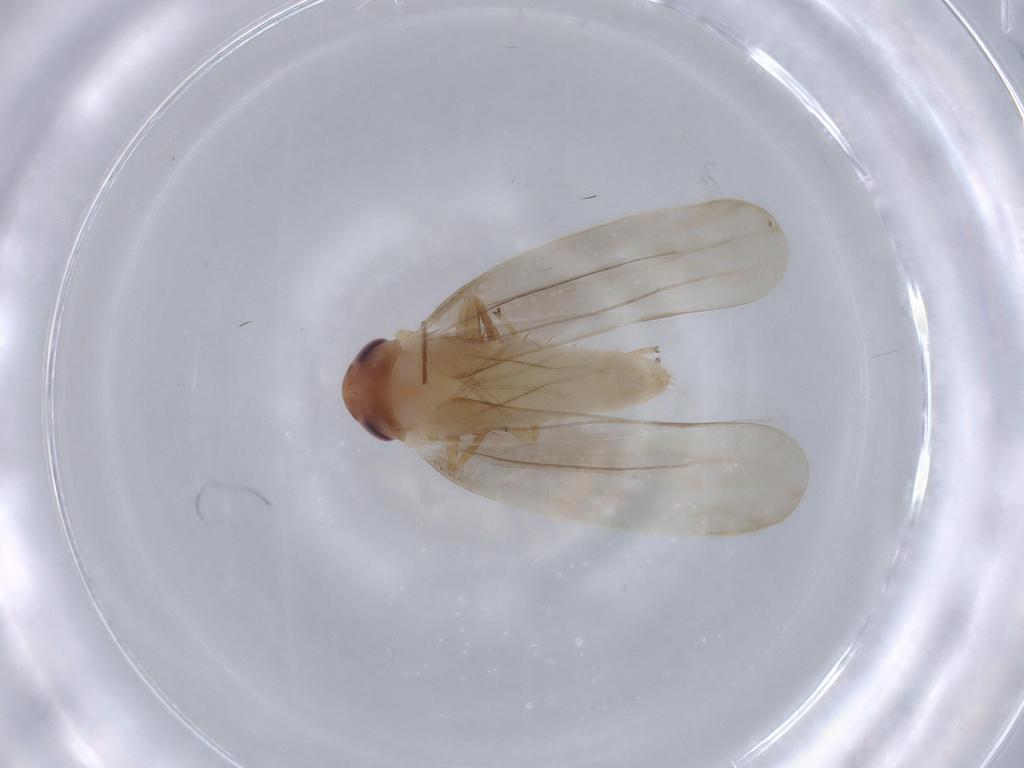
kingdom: Animalia
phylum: Arthropoda
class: Insecta
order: Hemiptera
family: Cicadellidae
